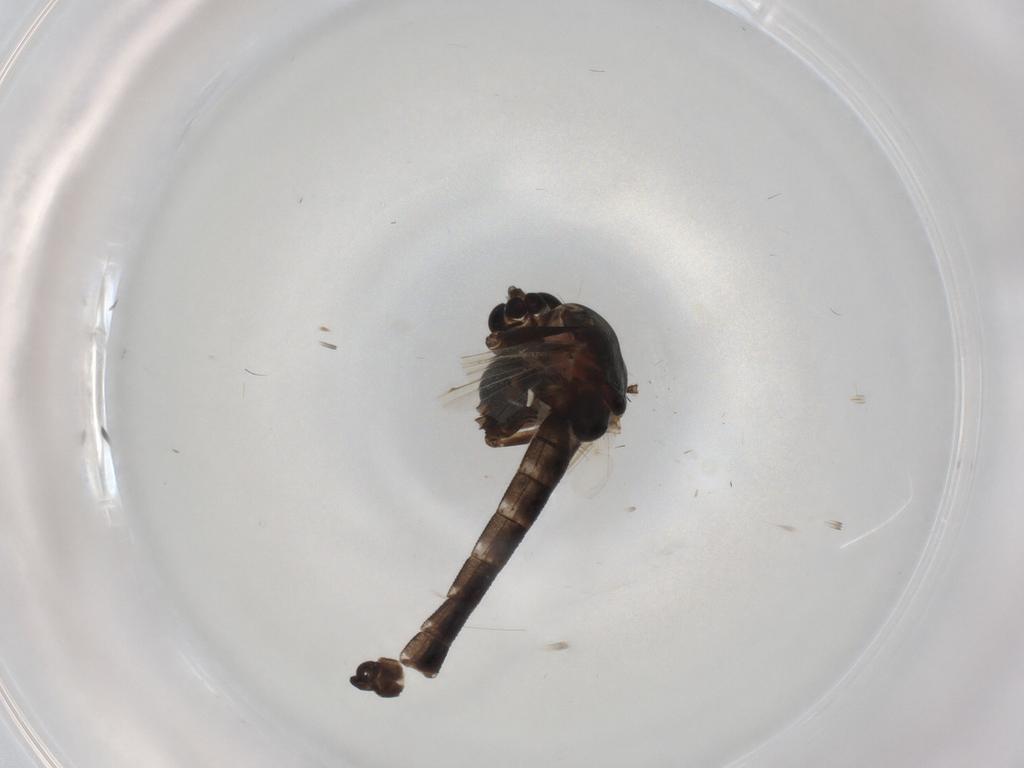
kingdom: Animalia
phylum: Arthropoda
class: Insecta
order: Diptera
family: Chironomidae
